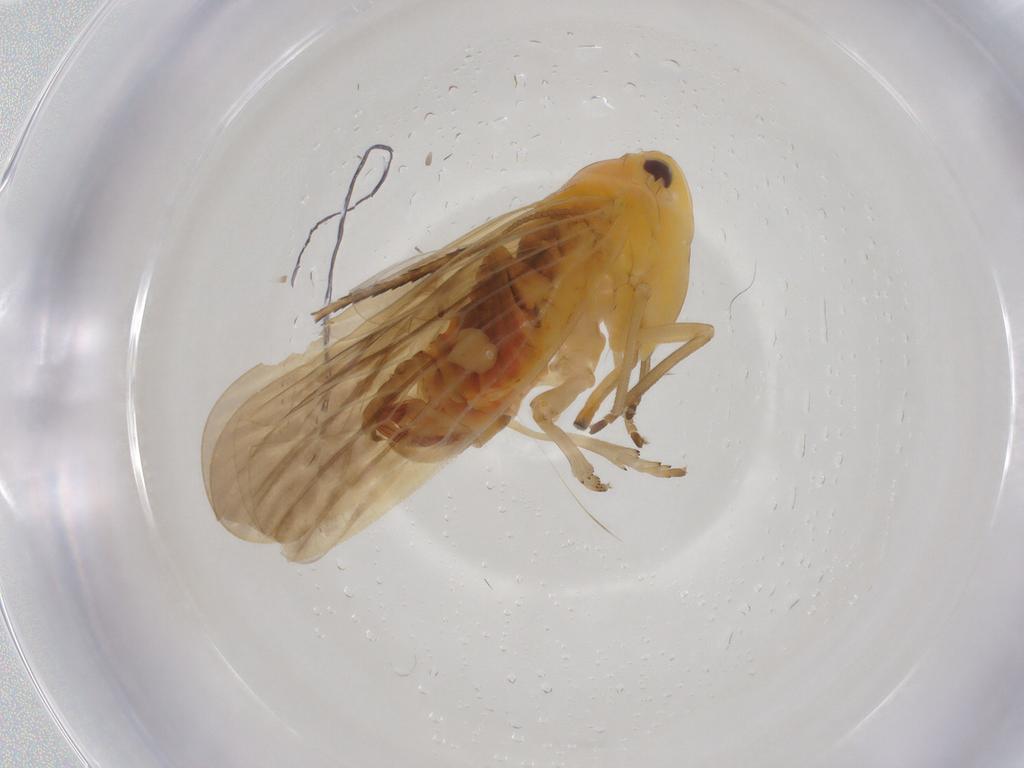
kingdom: Animalia
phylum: Arthropoda
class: Insecta
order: Hemiptera
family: Derbidae
